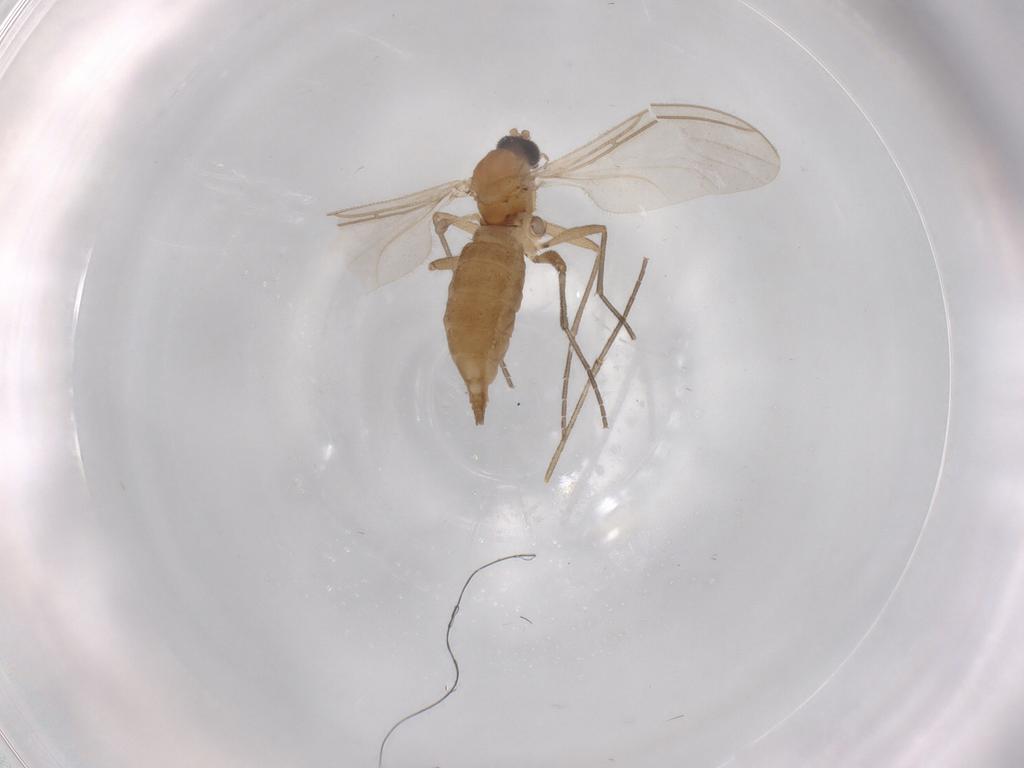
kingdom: Animalia
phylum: Arthropoda
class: Insecta
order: Diptera
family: Sciaridae
